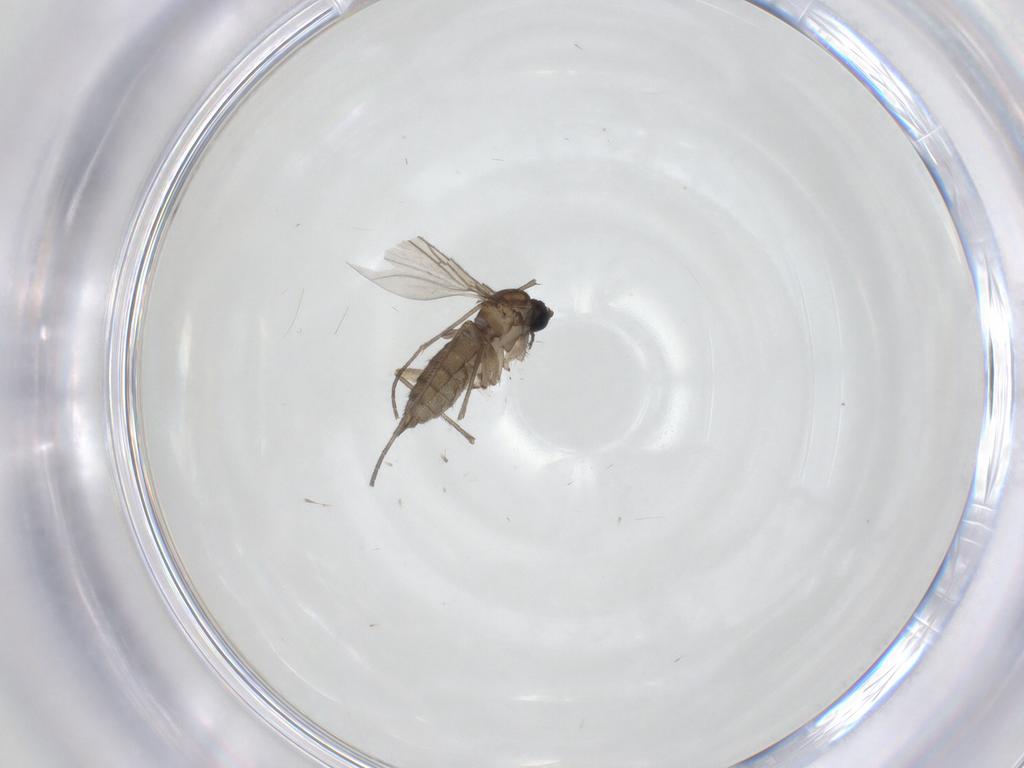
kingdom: Animalia
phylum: Arthropoda
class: Insecta
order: Diptera
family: Sciaridae
